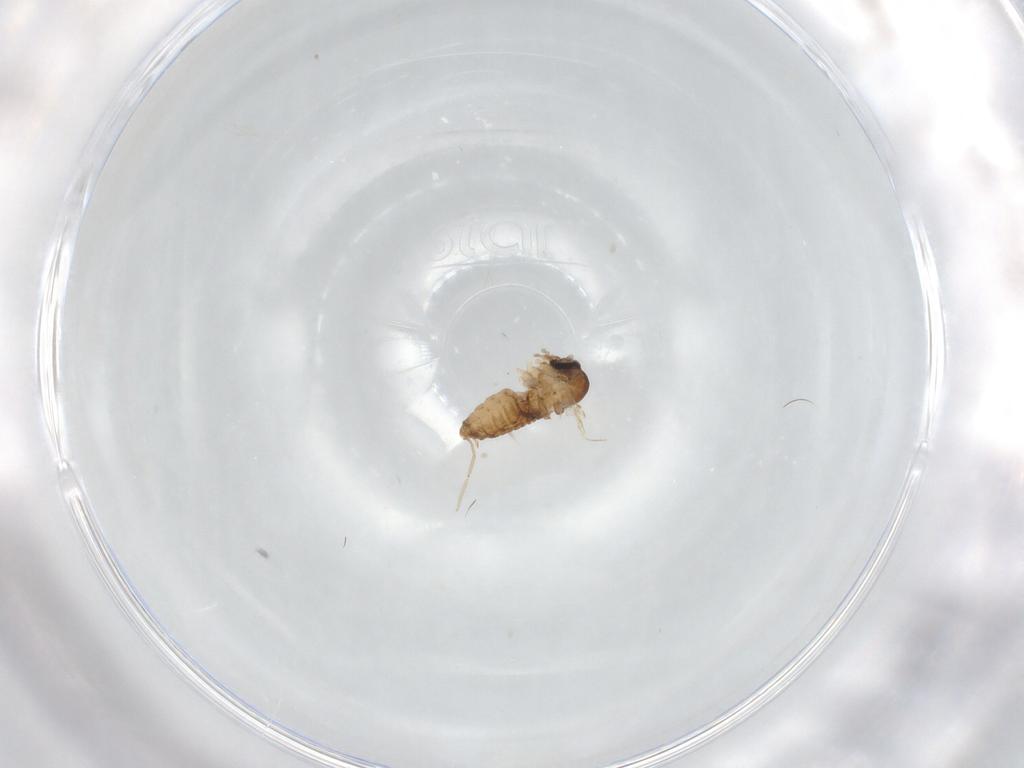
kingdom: Animalia
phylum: Arthropoda
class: Insecta
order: Diptera
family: Psychodidae
